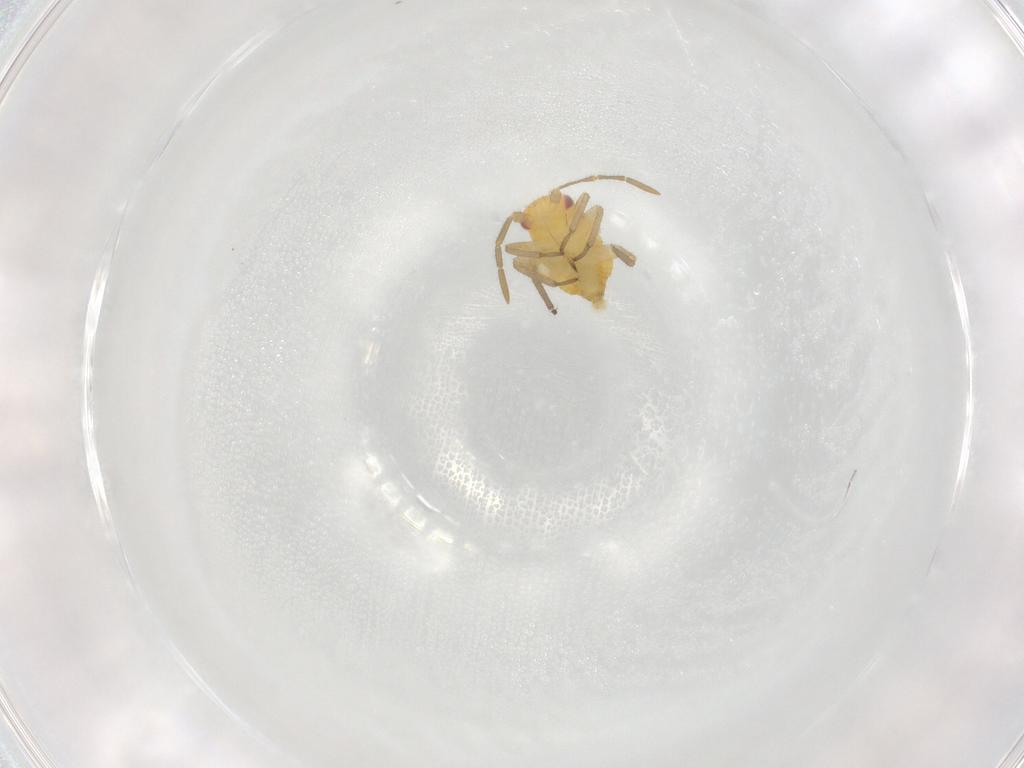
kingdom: Animalia
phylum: Arthropoda
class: Insecta
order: Hemiptera
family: Miridae
